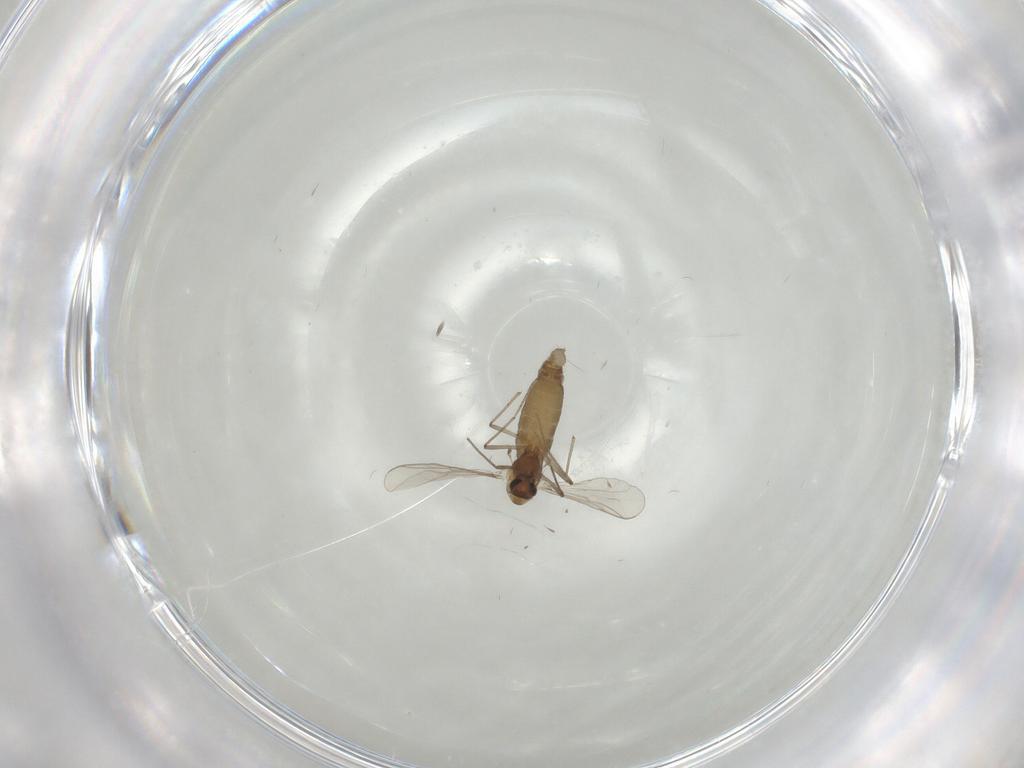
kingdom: Animalia
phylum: Arthropoda
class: Insecta
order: Diptera
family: Chironomidae
